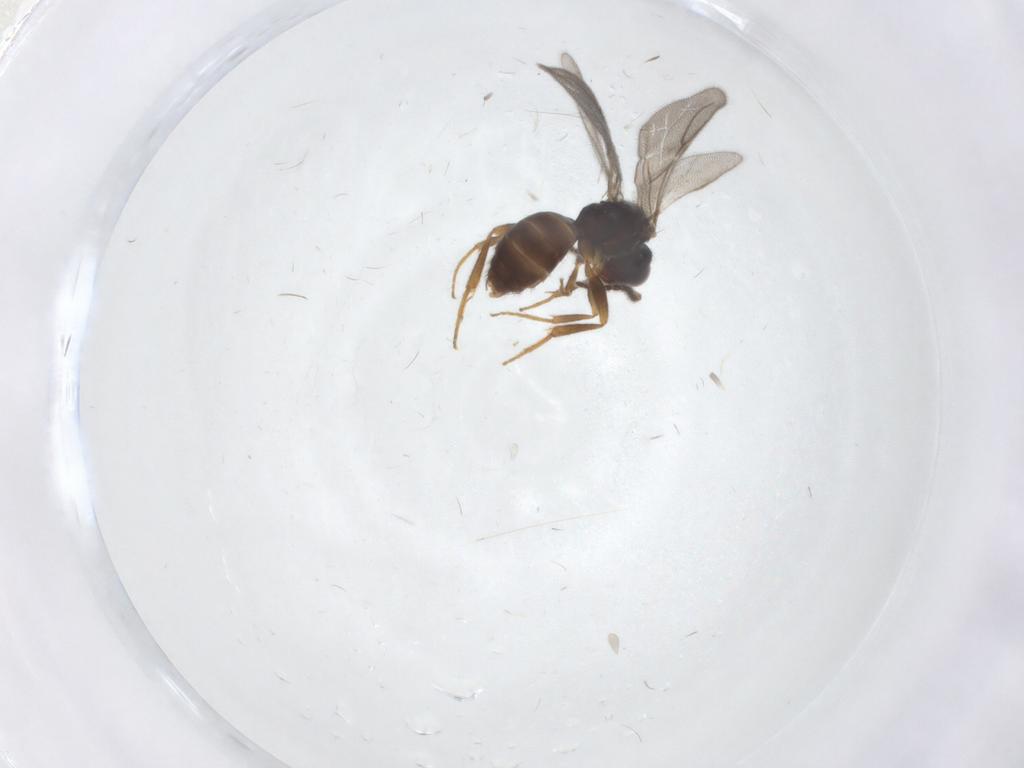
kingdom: Animalia
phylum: Arthropoda
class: Insecta
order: Hymenoptera
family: Bethylidae
